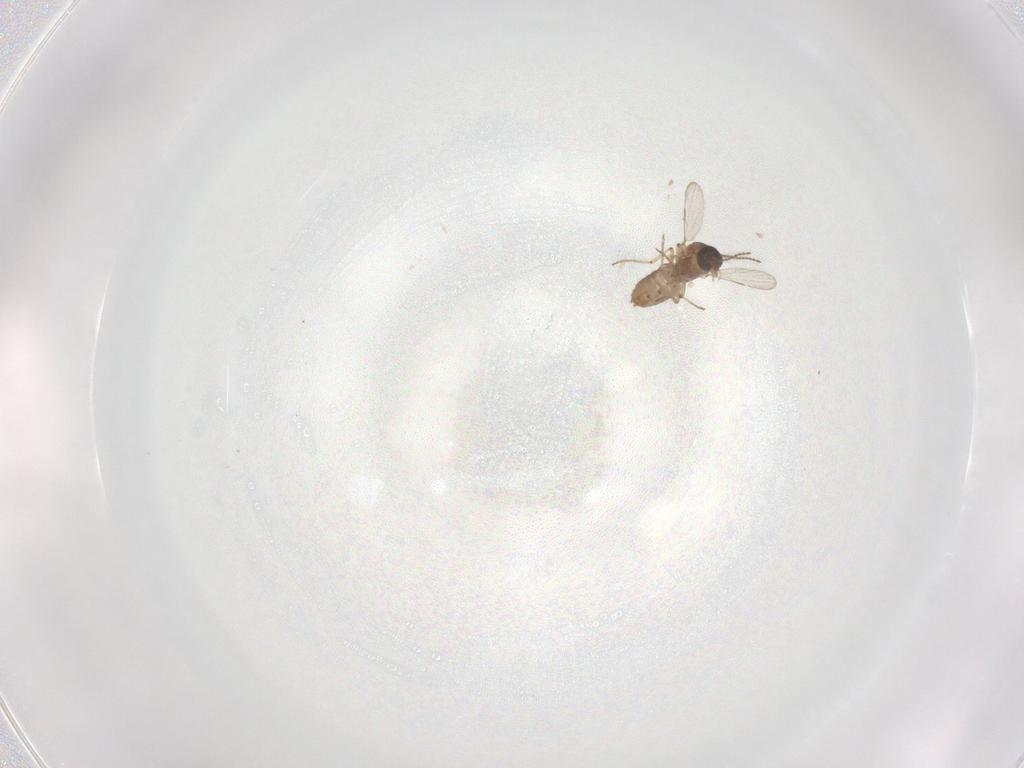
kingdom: Animalia
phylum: Arthropoda
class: Insecta
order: Diptera
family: Ceratopogonidae
